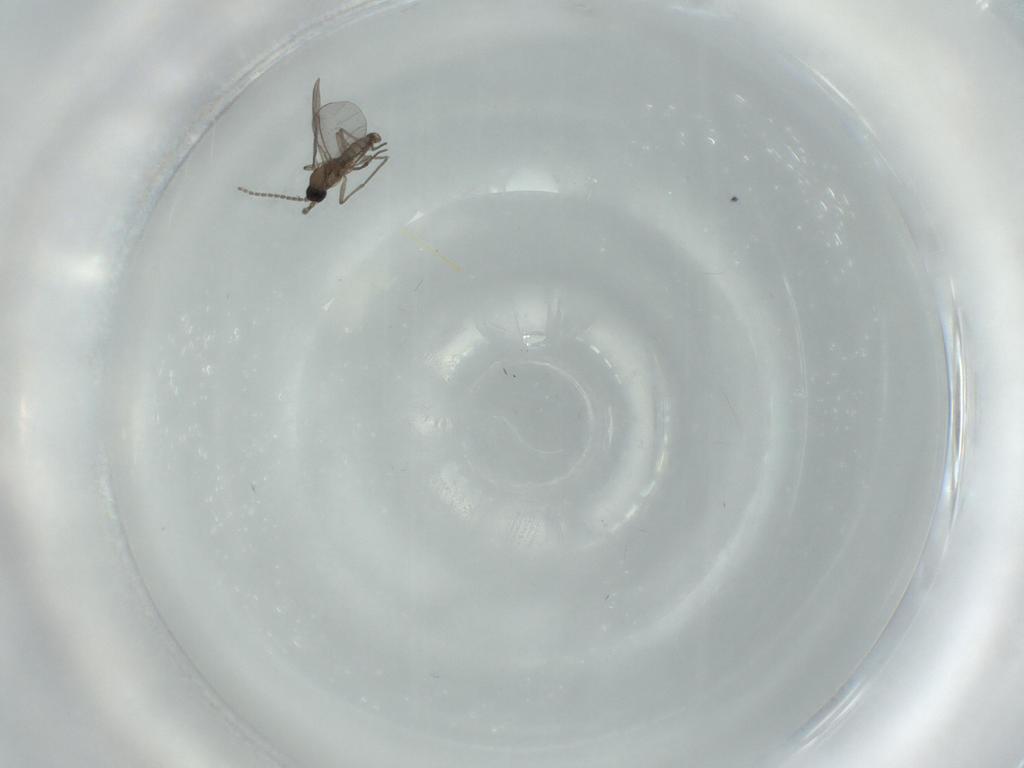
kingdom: Animalia
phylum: Arthropoda
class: Insecta
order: Diptera
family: Sciaridae
